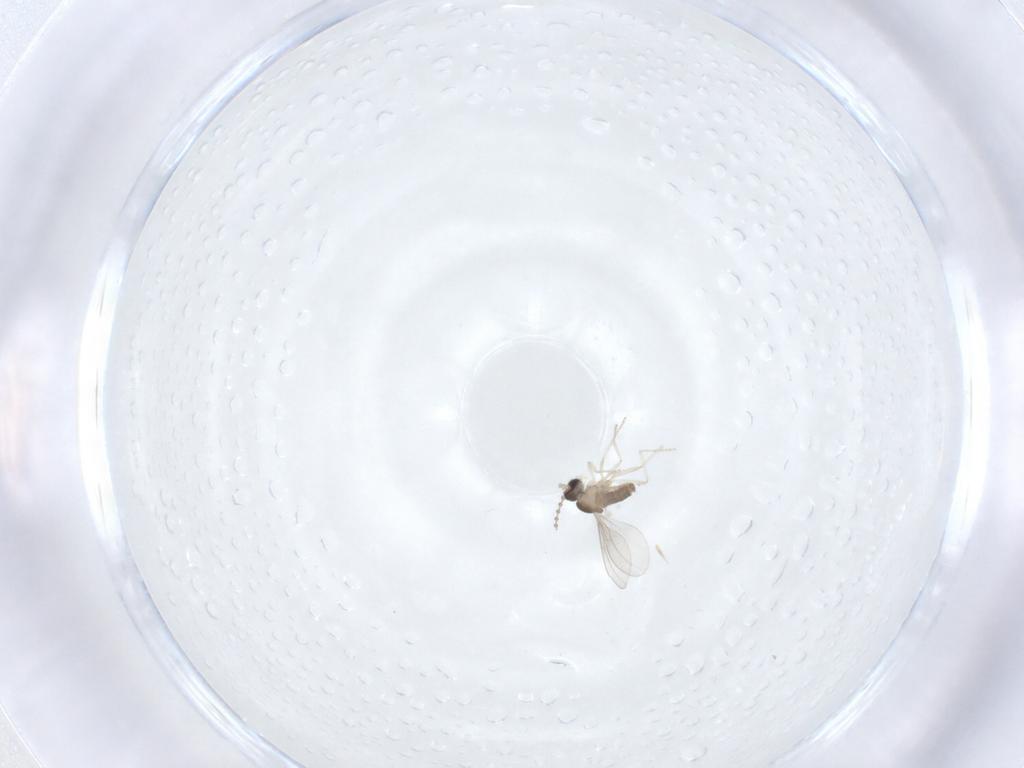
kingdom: Animalia
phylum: Arthropoda
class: Insecta
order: Diptera
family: Cecidomyiidae
